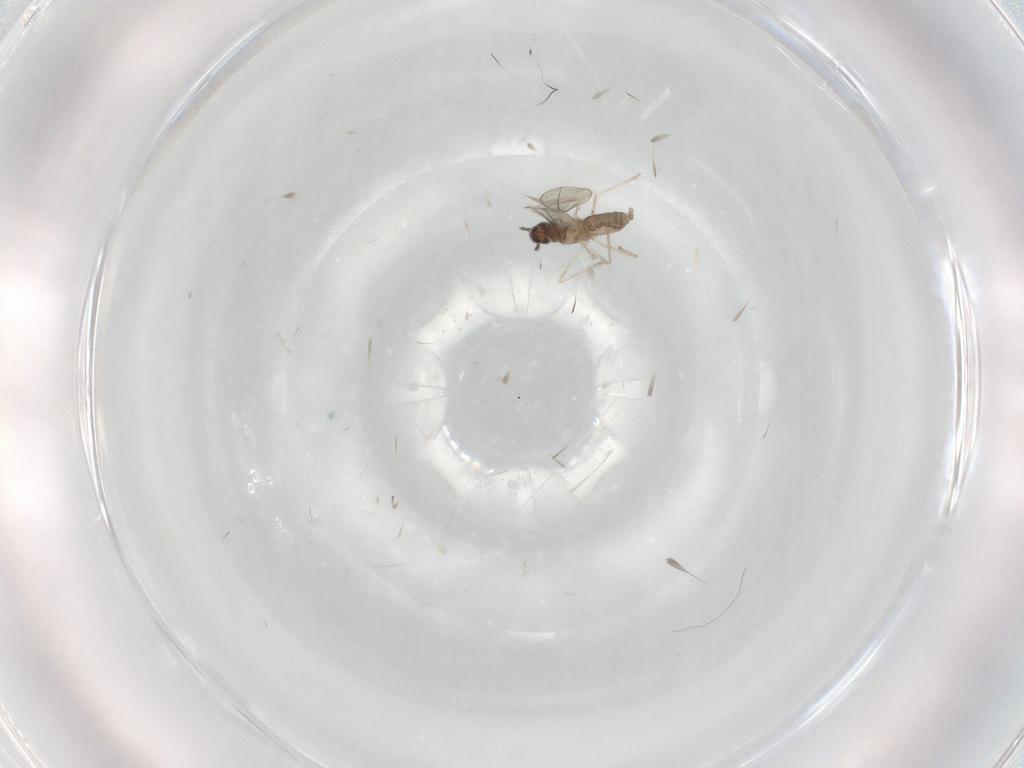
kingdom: Animalia
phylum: Arthropoda
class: Insecta
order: Diptera
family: Cecidomyiidae
